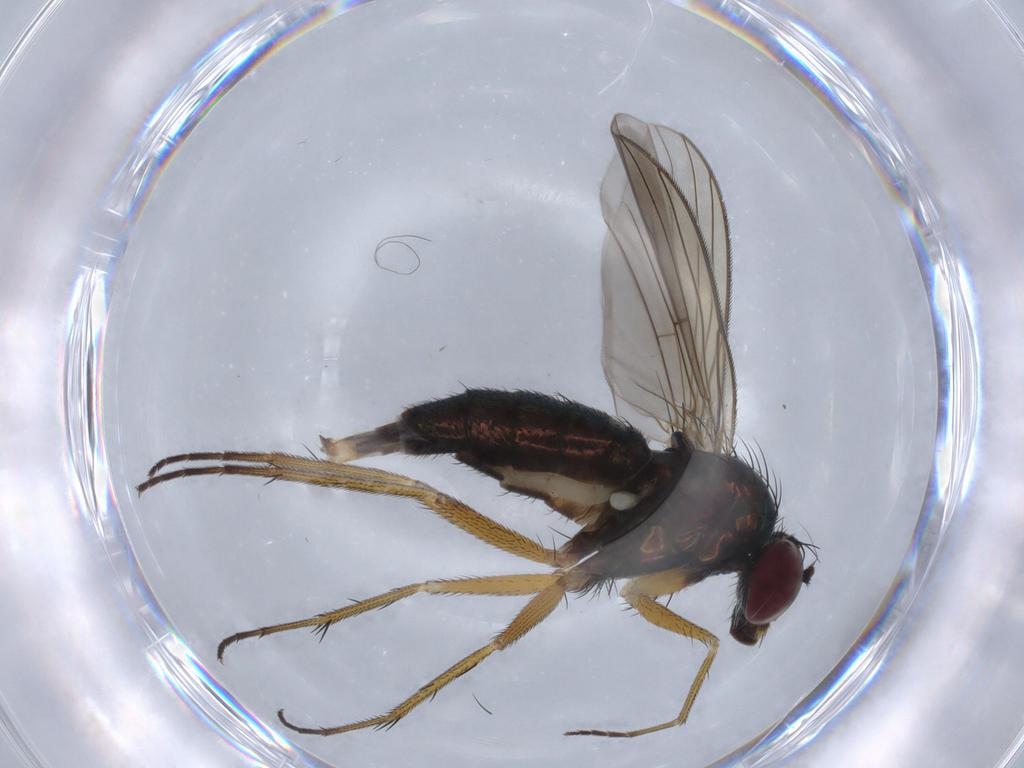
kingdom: Animalia
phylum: Arthropoda
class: Insecta
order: Diptera
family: Dolichopodidae
